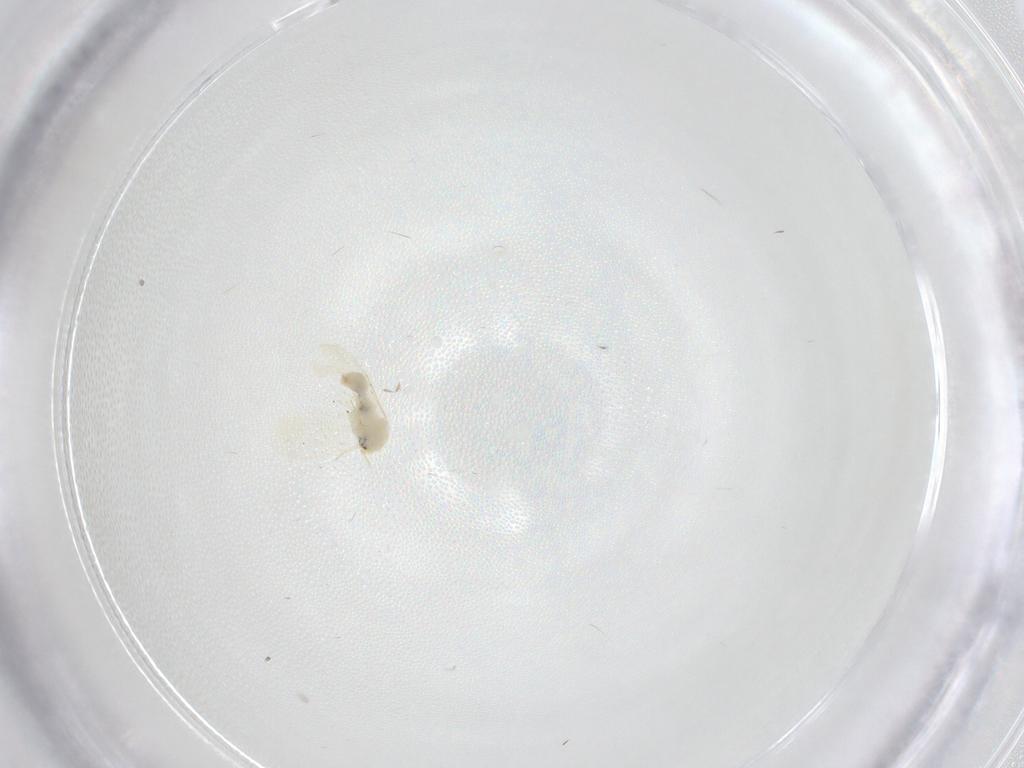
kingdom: Animalia
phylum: Arthropoda
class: Insecta
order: Hemiptera
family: Aleyrodidae
